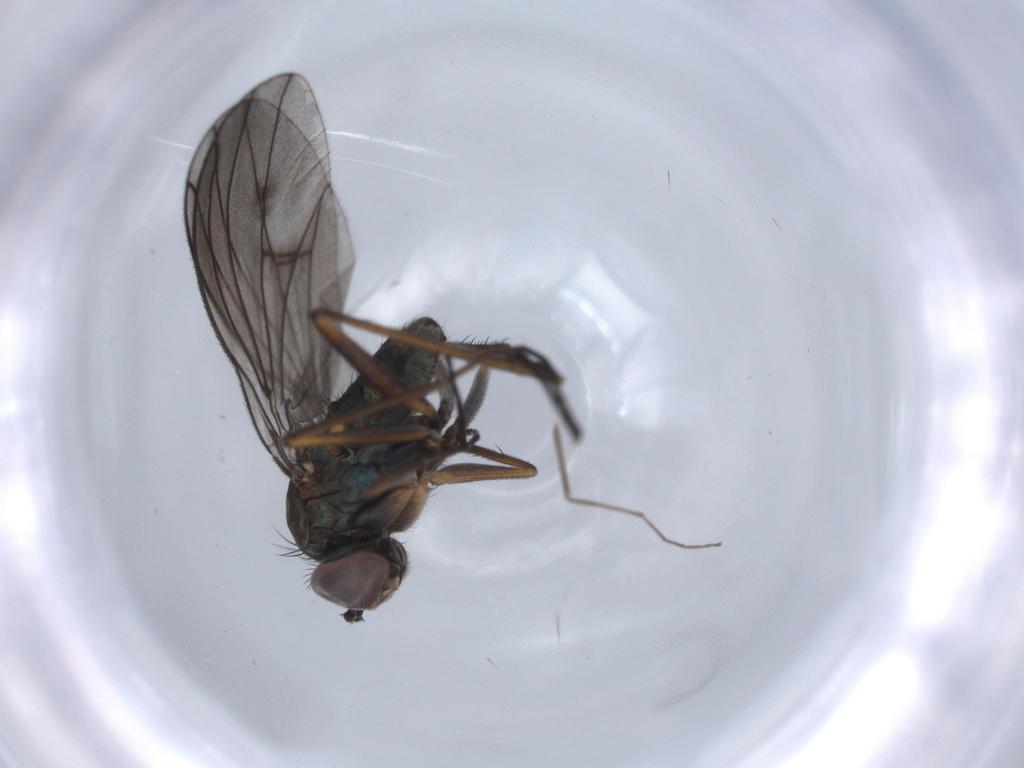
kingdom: Animalia
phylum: Arthropoda
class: Insecta
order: Diptera
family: Dolichopodidae
